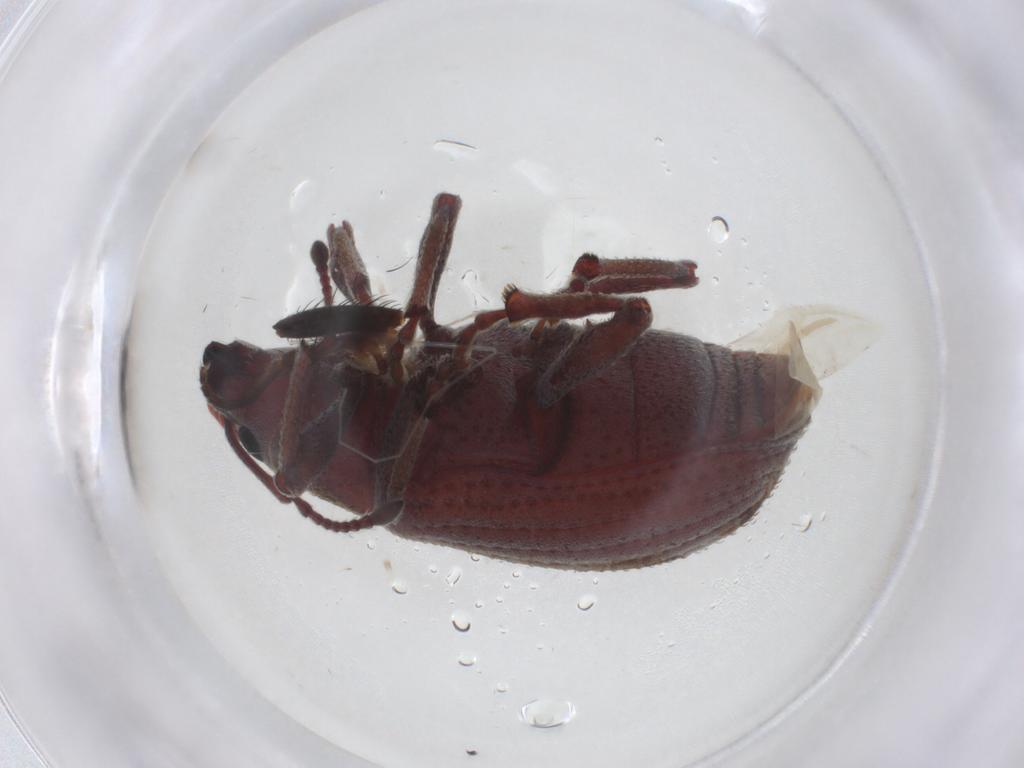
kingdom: Animalia
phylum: Arthropoda
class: Insecta
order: Coleoptera
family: Curculionidae
